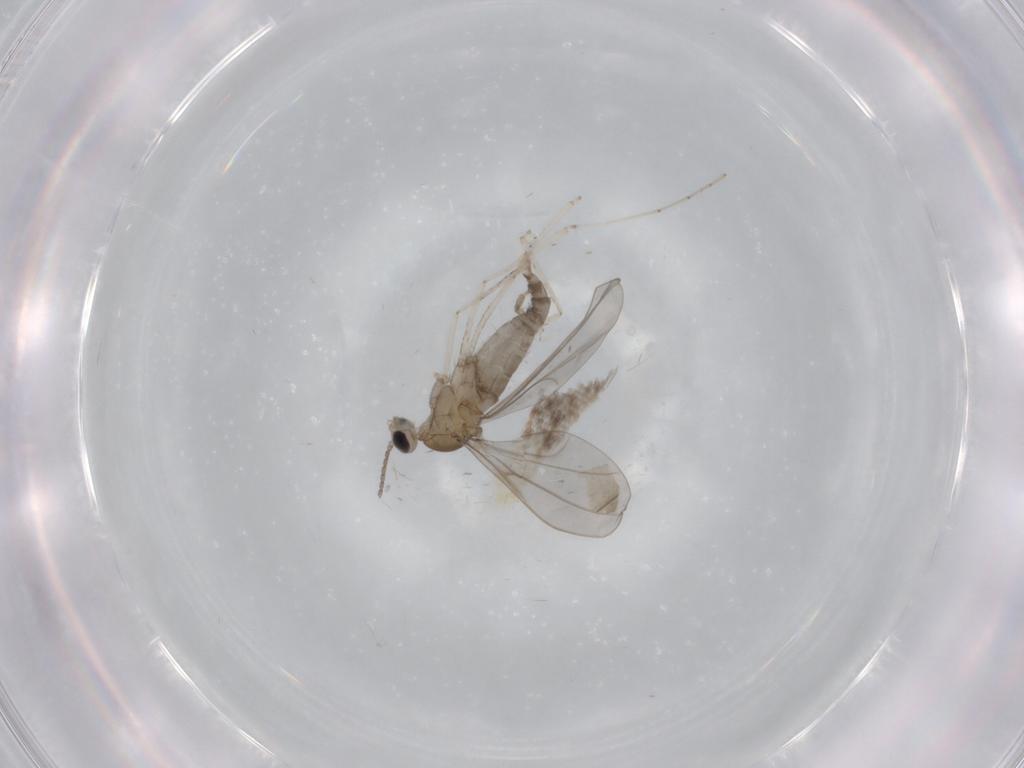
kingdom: Animalia
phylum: Arthropoda
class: Insecta
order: Diptera
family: Cecidomyiidae
